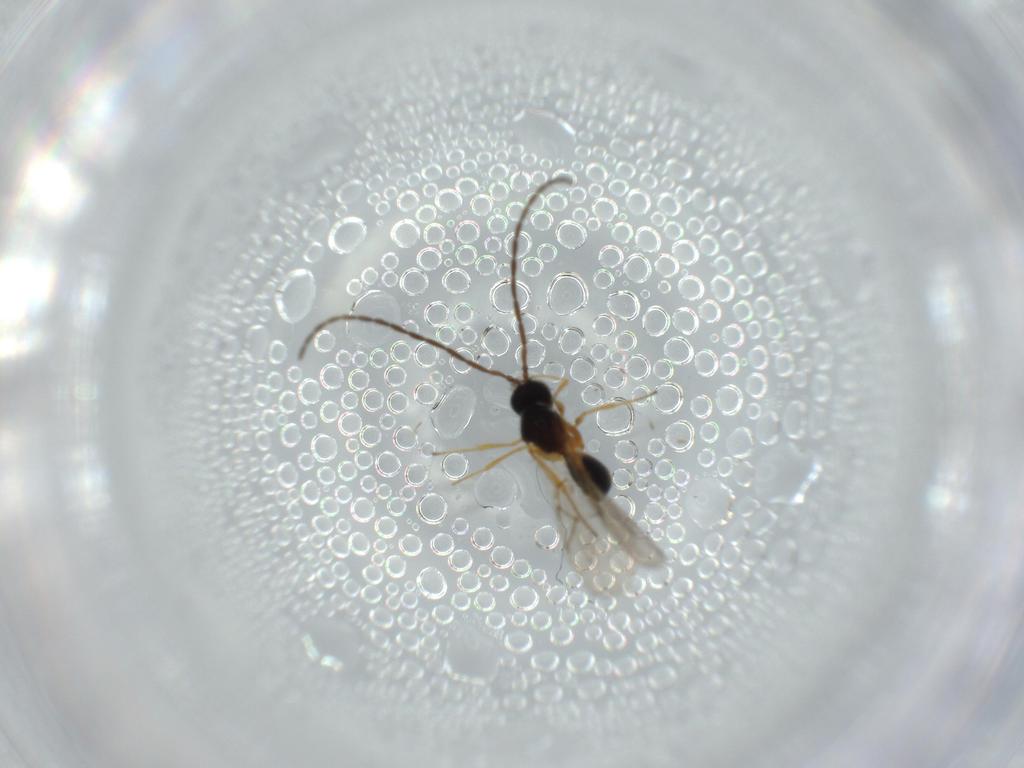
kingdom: Animalia
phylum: Arthropoda
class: Insecta
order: Hymenoptera
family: Figitidae
